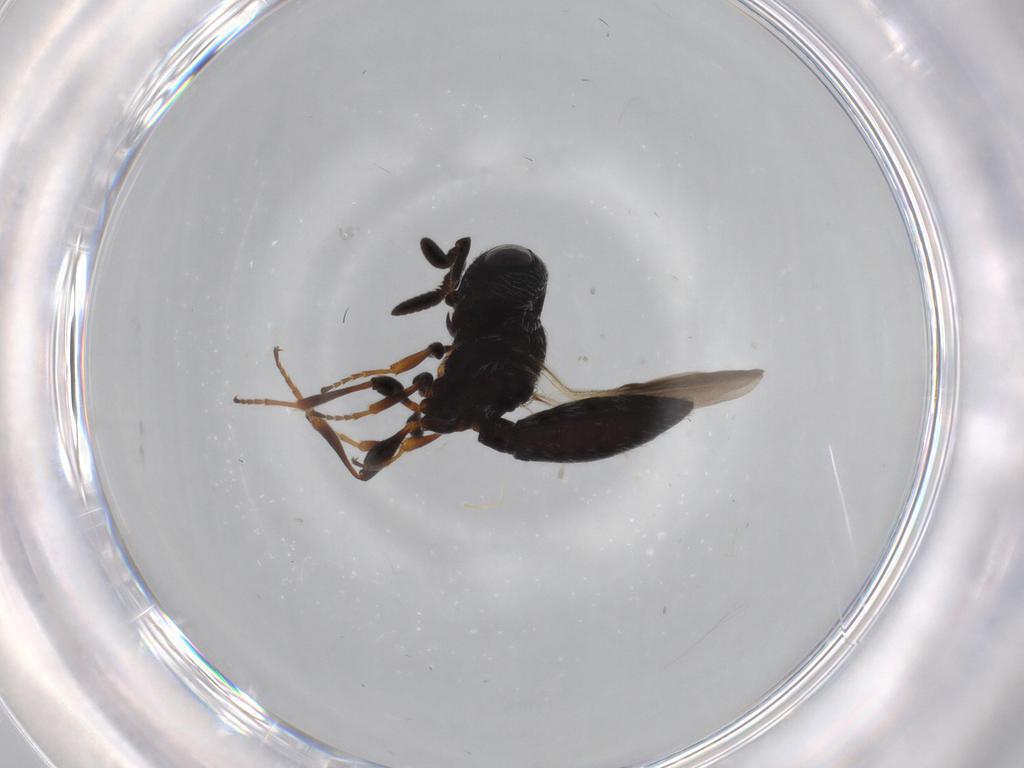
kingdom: Animalia
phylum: Arthropoda
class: Insecta
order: Hymenoptera
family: Scelionidae
